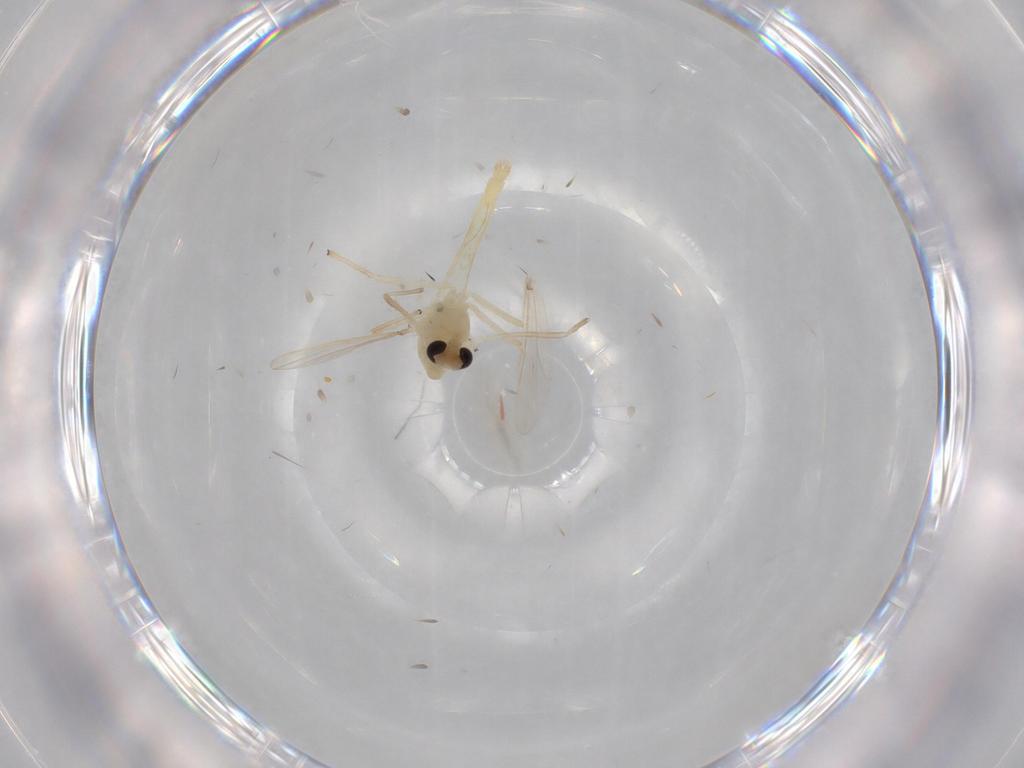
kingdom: Animalia
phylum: Arthropoda
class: Insecta
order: Diptera
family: Chironomidae
